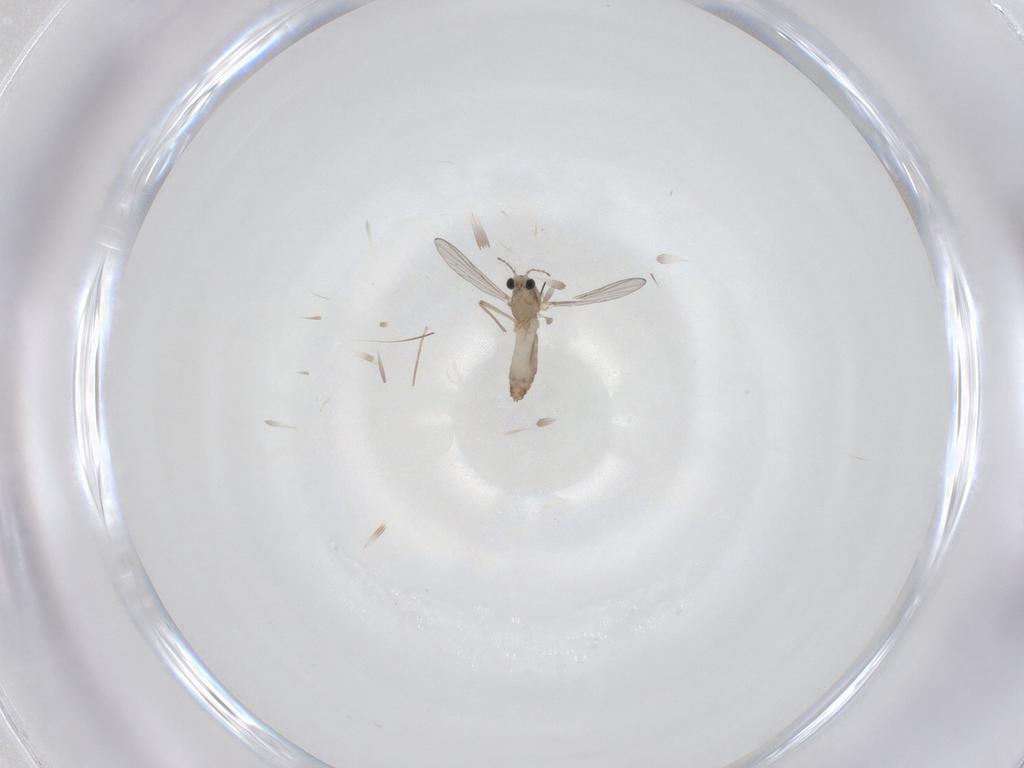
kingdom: Animalia
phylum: Arthropoda
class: Insecta
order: Diptera
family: Chironomidae
